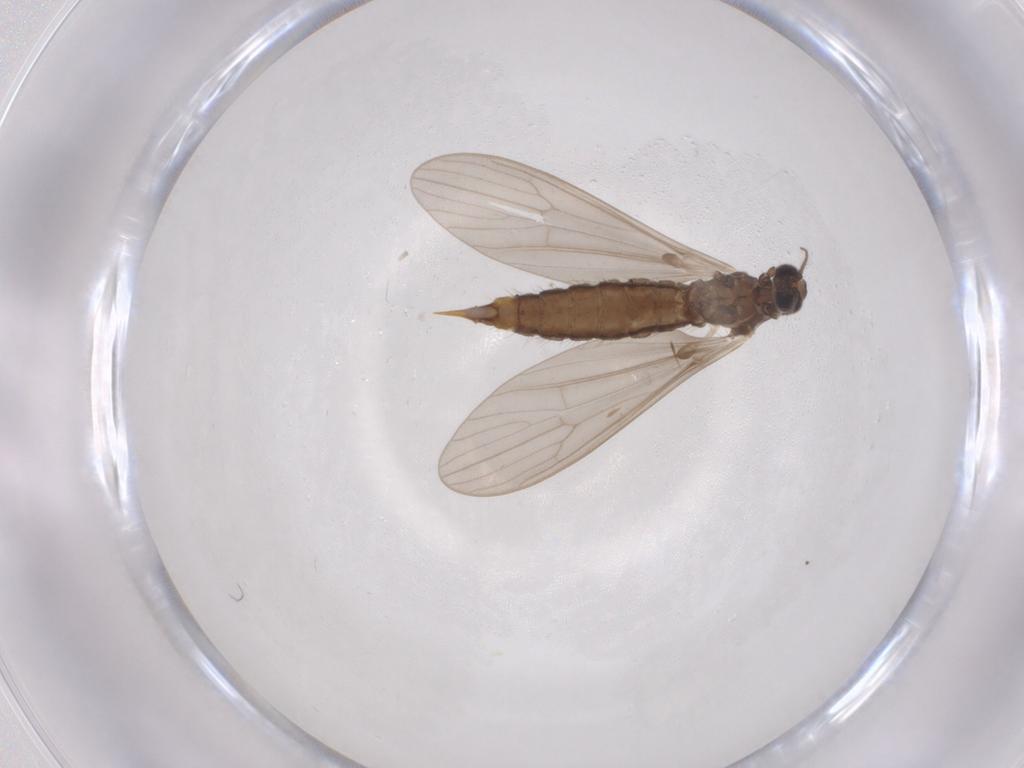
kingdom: Animalia
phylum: Arthropoda
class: Insecta
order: Diptera
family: Limoniidae
